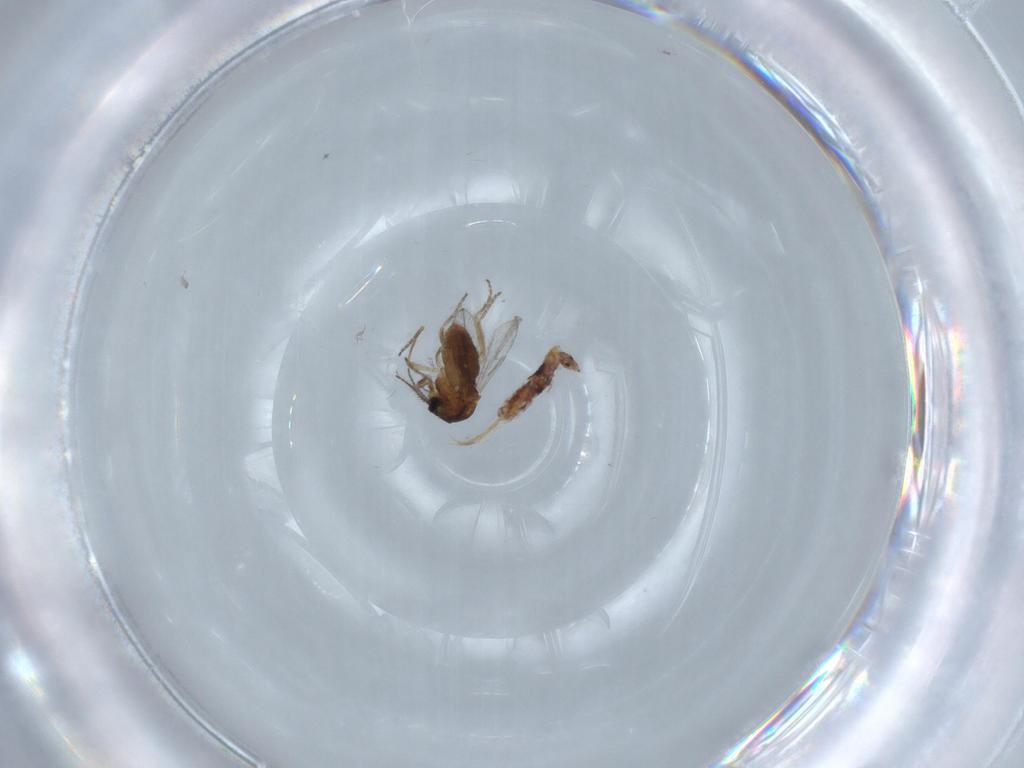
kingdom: Animalia
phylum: Arthropoda
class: Insecta
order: Diptera
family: Ceratopogonidae
